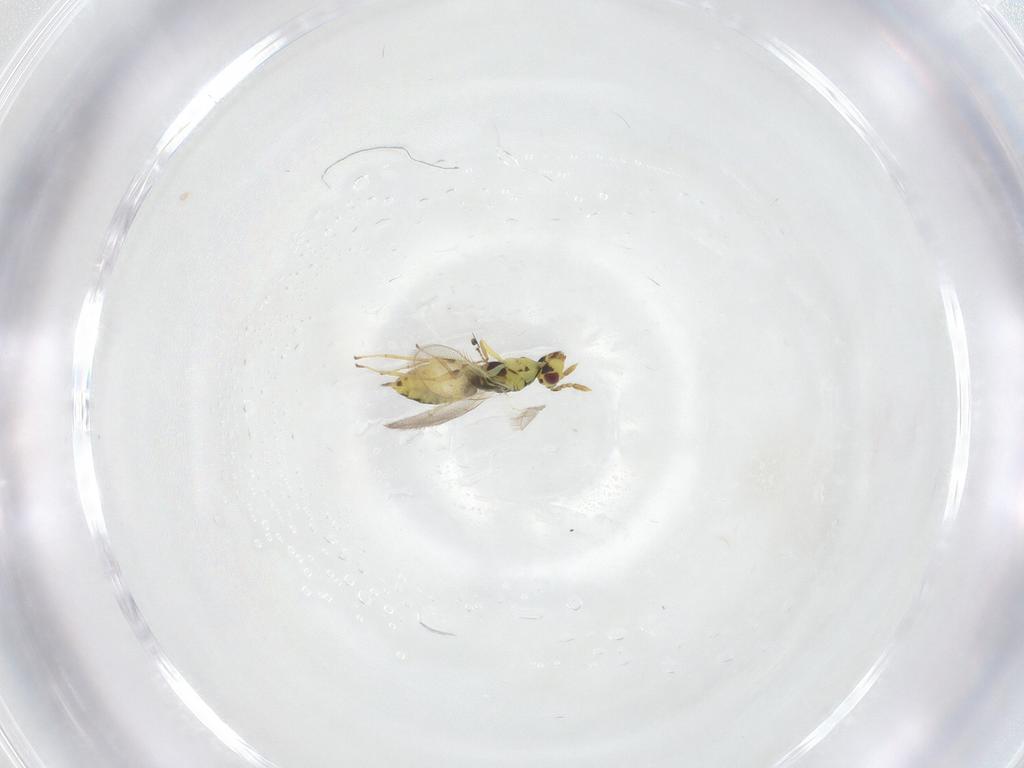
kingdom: Animalia
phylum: Arthropoda
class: Insecta
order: Hymenoptera
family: Eulophidae
